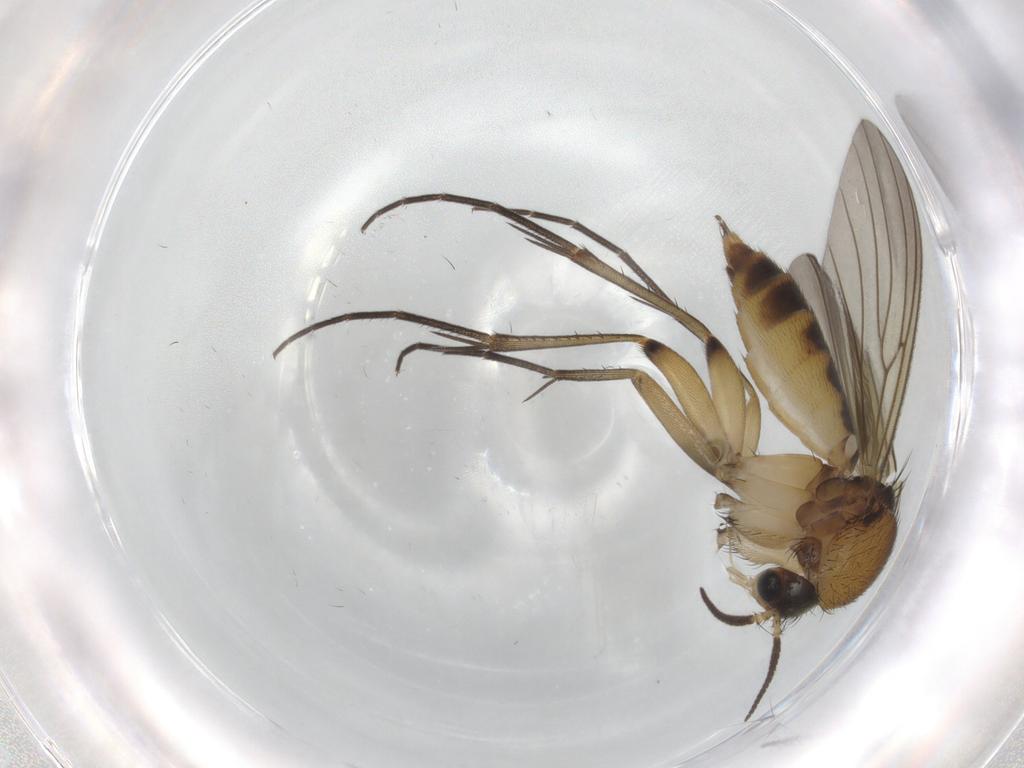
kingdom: Animalia
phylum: Arthropoda
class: Insecta
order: Diptera
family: Mycetophilidae
